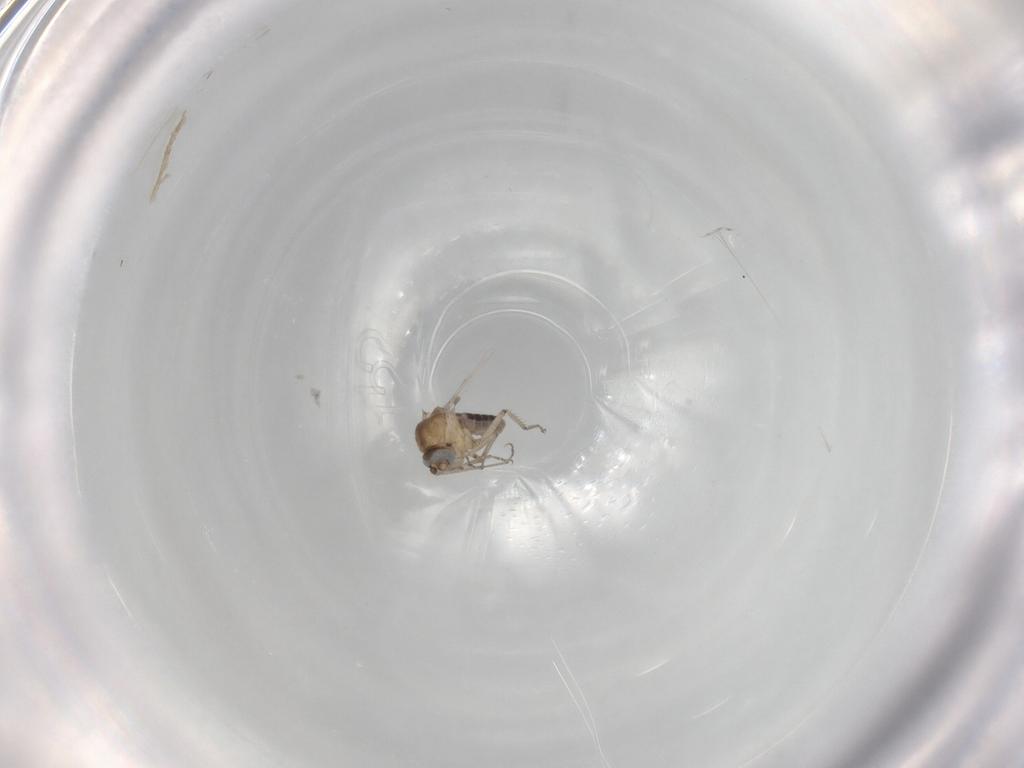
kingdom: Animalia
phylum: Arthropoda
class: Insecta
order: Diptera
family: Ceratopogonidae
